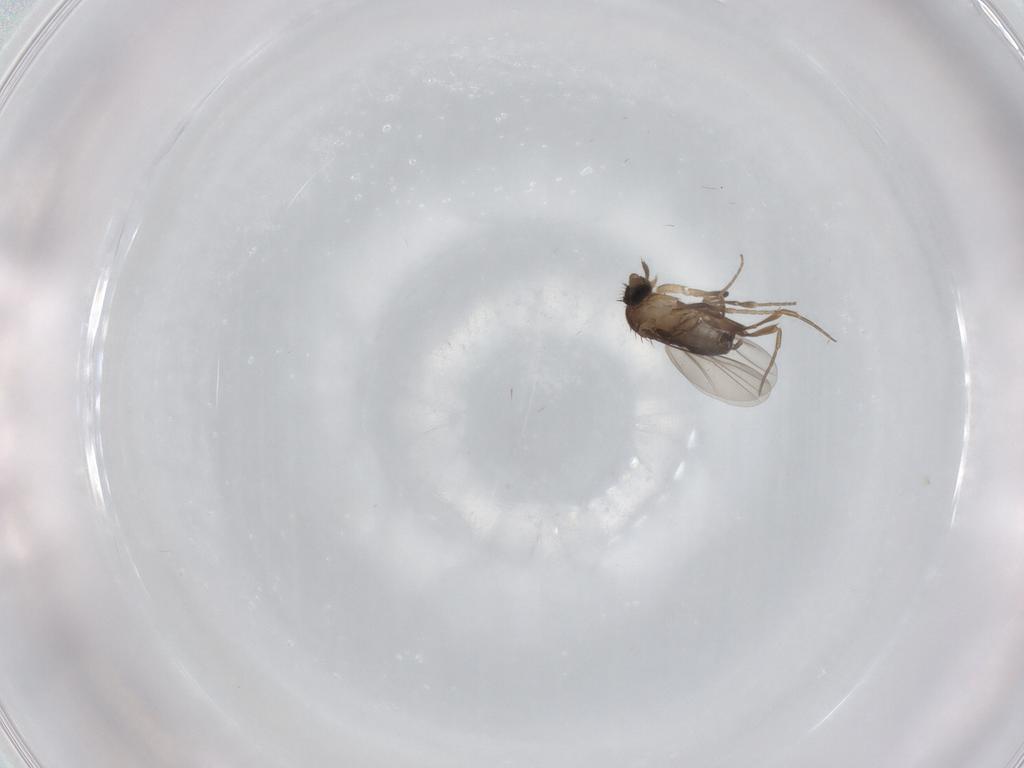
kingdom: Animalia
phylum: Arthropoda
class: Insecta
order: Diptera
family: Phoridae
